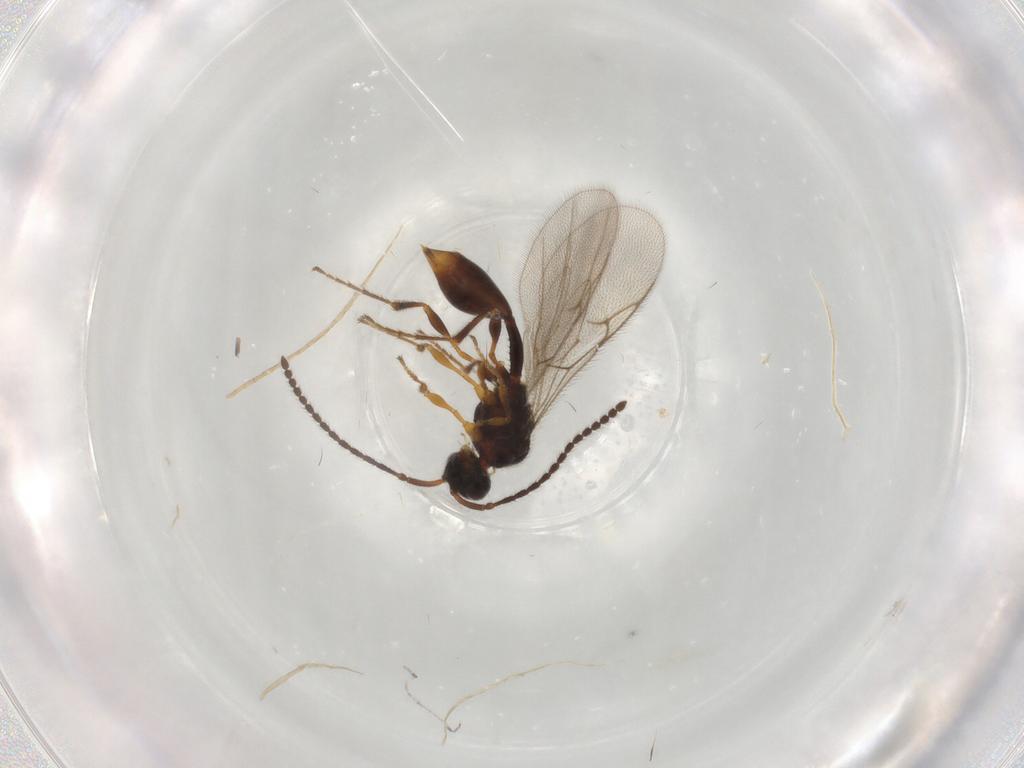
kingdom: Animalia
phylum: Arthropoda
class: Insecta
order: Hymenoptera
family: Diapriidae
